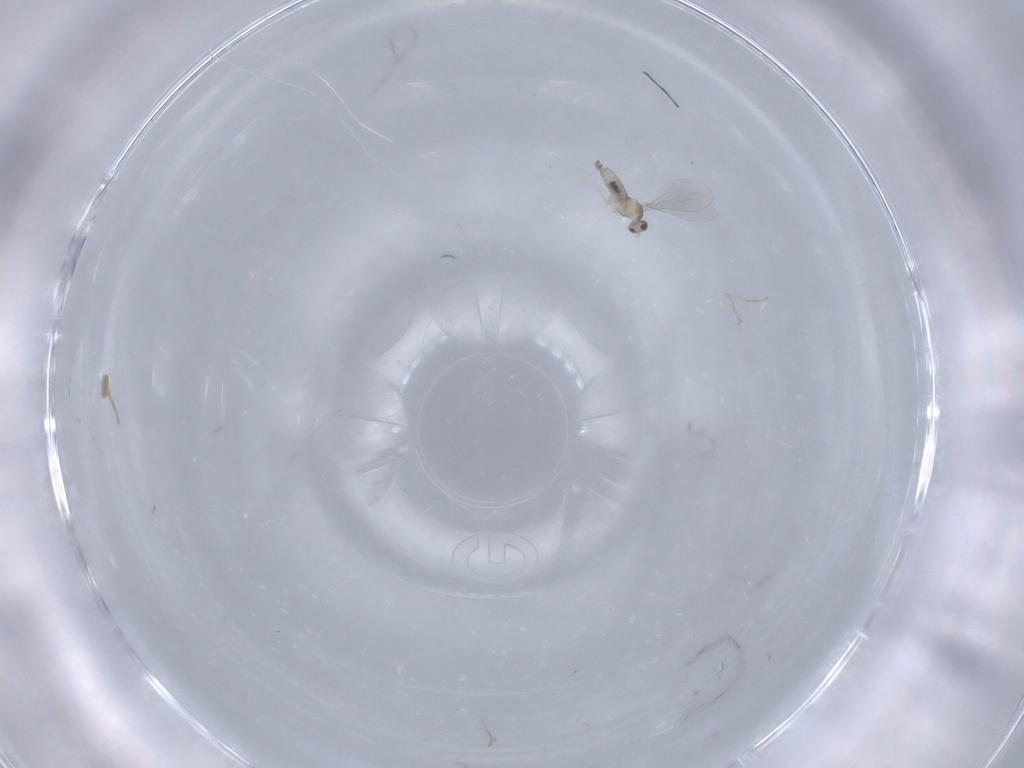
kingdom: Animalia
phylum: Arthropoda
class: Insecta
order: Diptera
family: Cecidomyiidae
